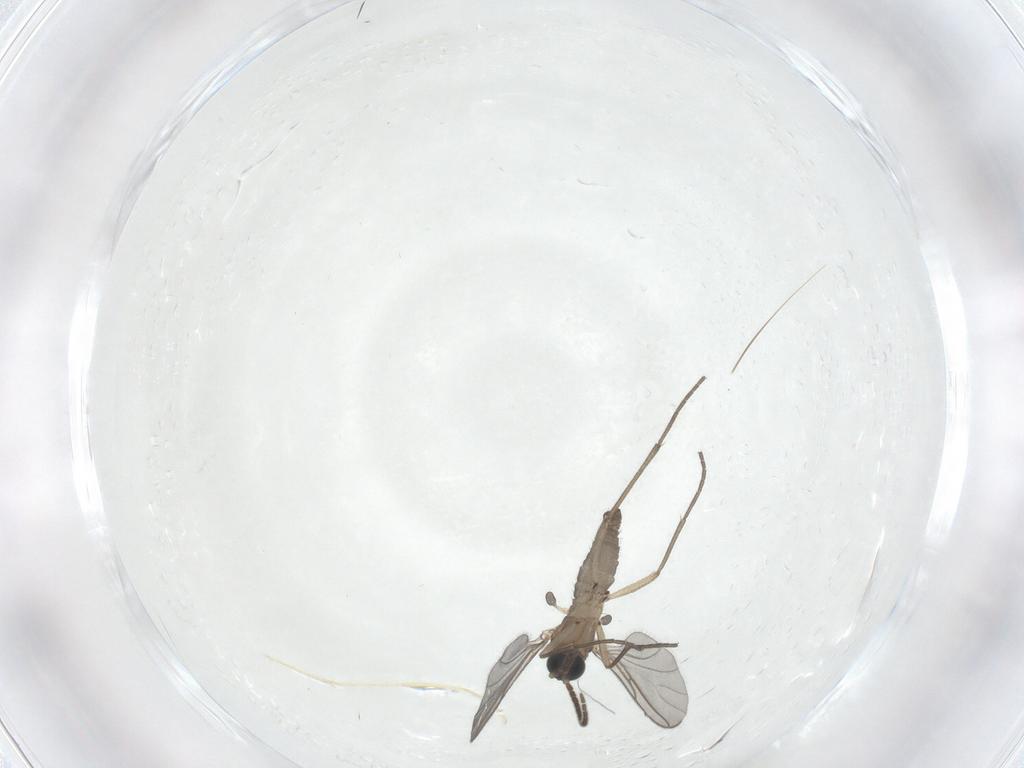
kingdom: Animalia
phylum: Arthropoda
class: Insecta
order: Diptera
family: Sciaridae
